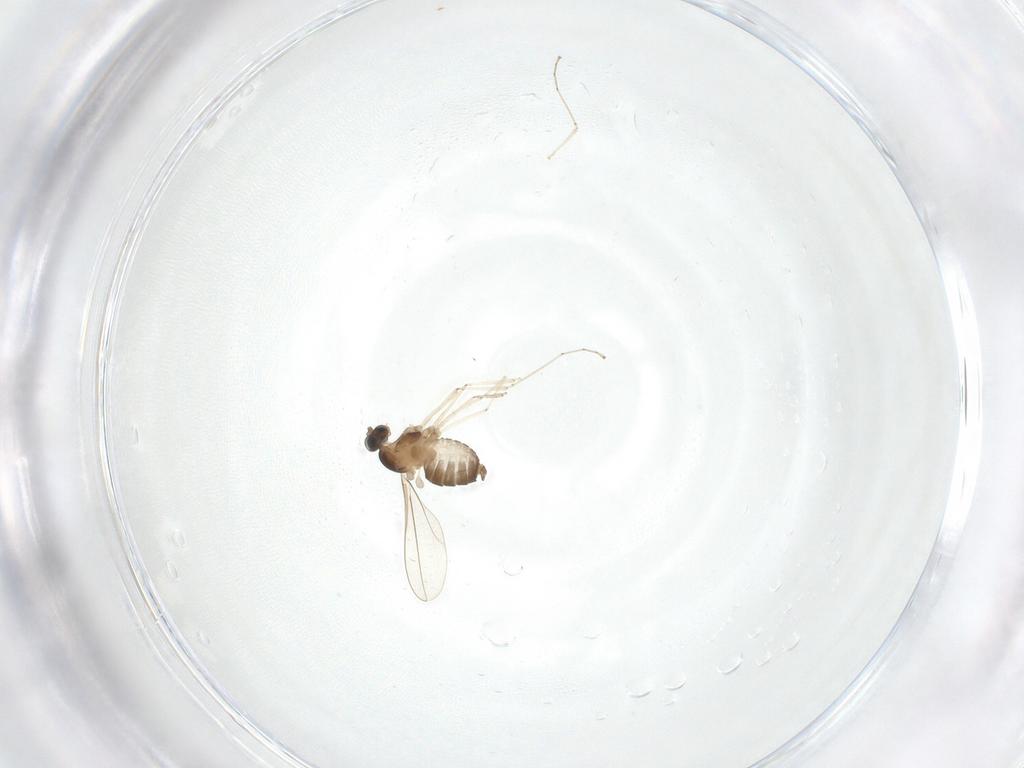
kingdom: Animalia
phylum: Arthropoda
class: Insecta
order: Diptera
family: Cecidomyiidae
